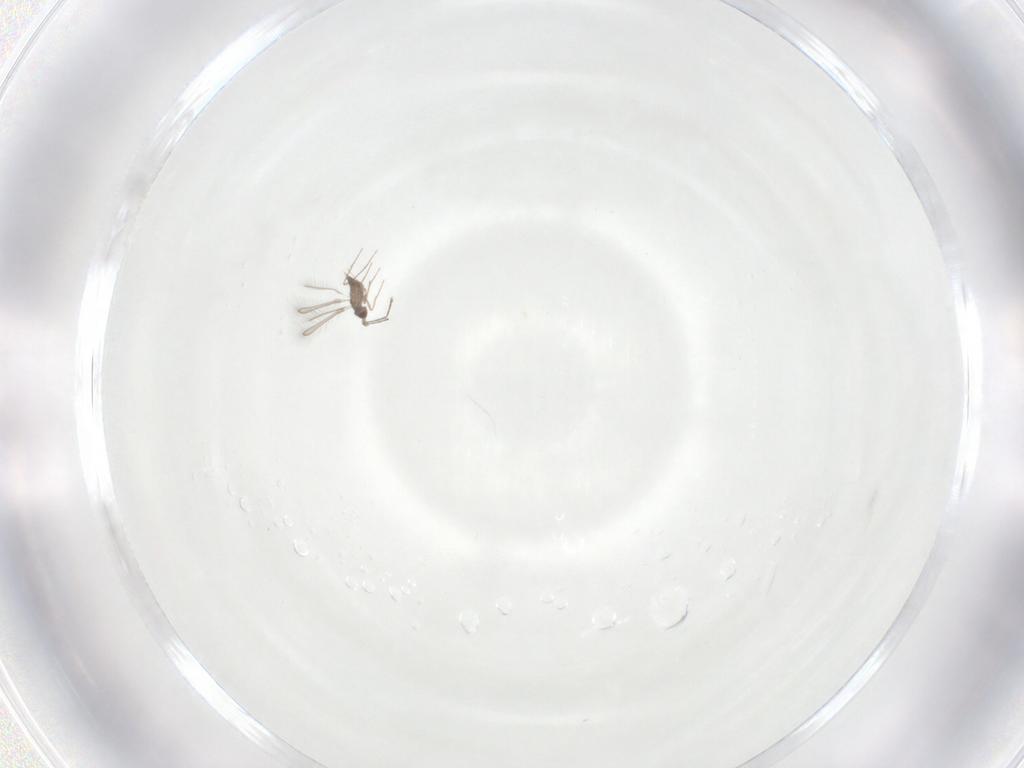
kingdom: Animalia
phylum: Arthropoda
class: Insecta
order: Hymenoptera
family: Mymaridae
